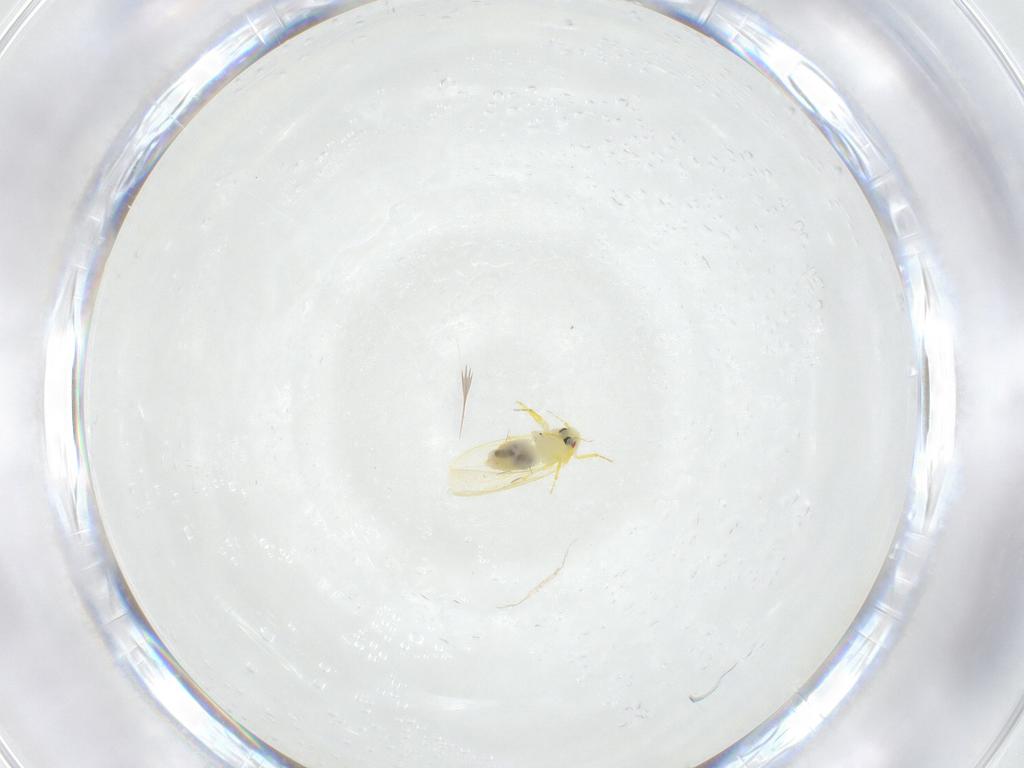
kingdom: Animalia
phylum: Arthropoda
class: Insecta
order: Hemiptera
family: Aleyrodidae
